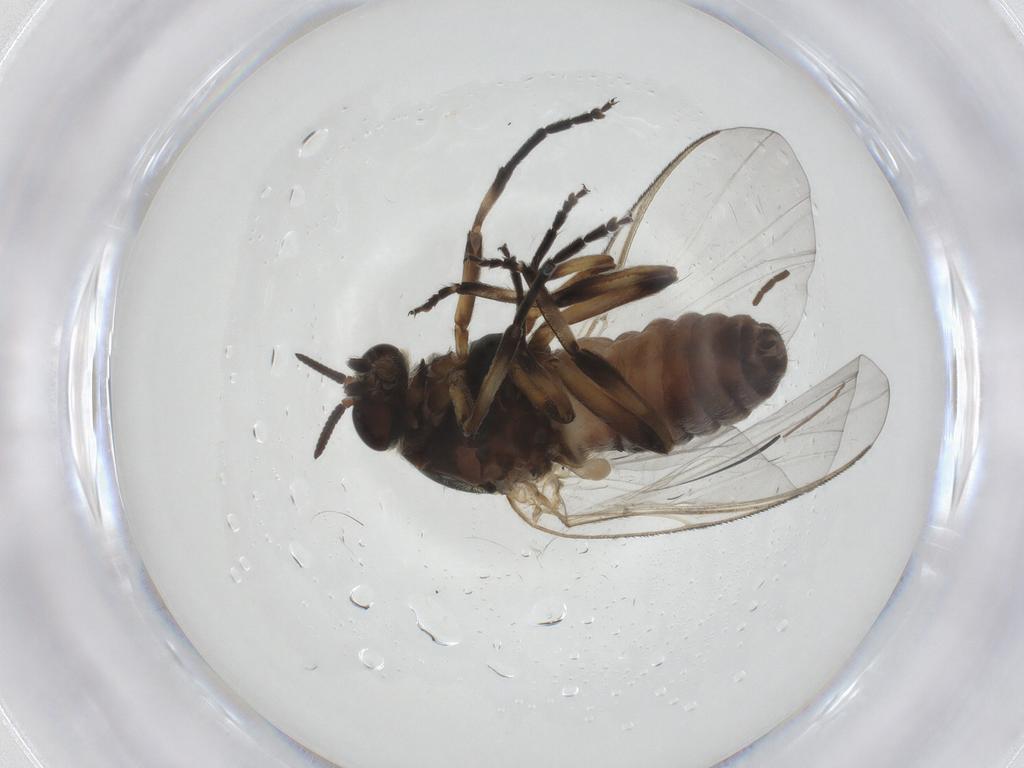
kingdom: Animalia
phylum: Arthropoda
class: Insecta
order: Diptera
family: Simuliidae
